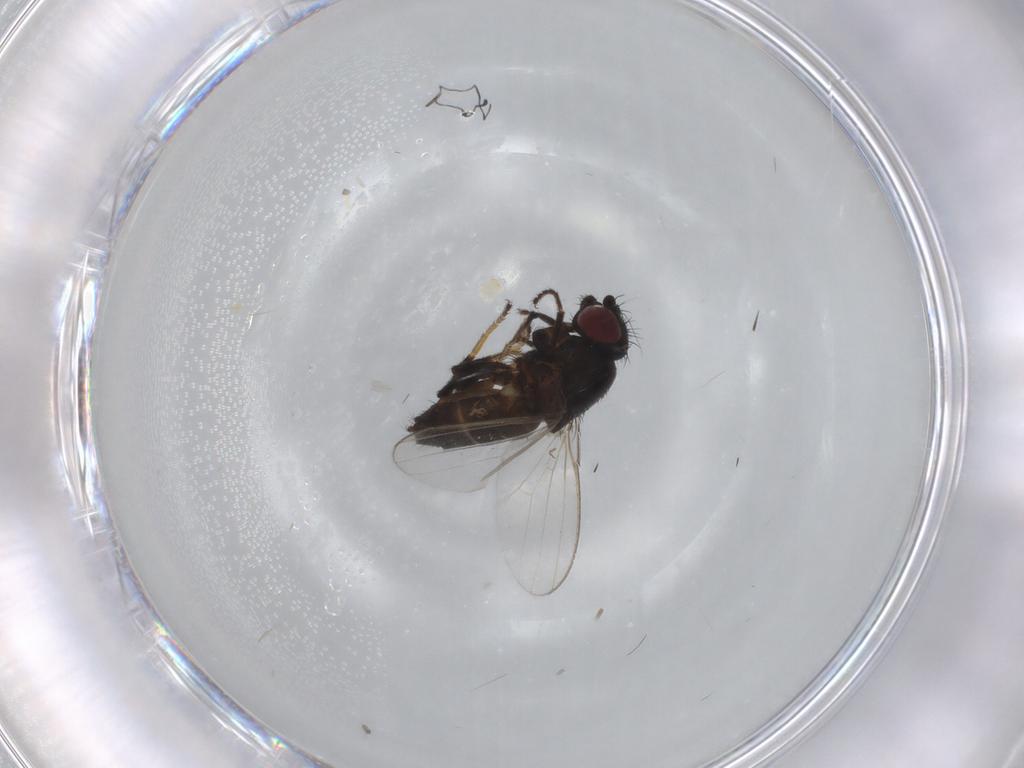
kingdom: Animalia
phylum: Arthropoda
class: Insecta
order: Diptera
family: Milichiidae
